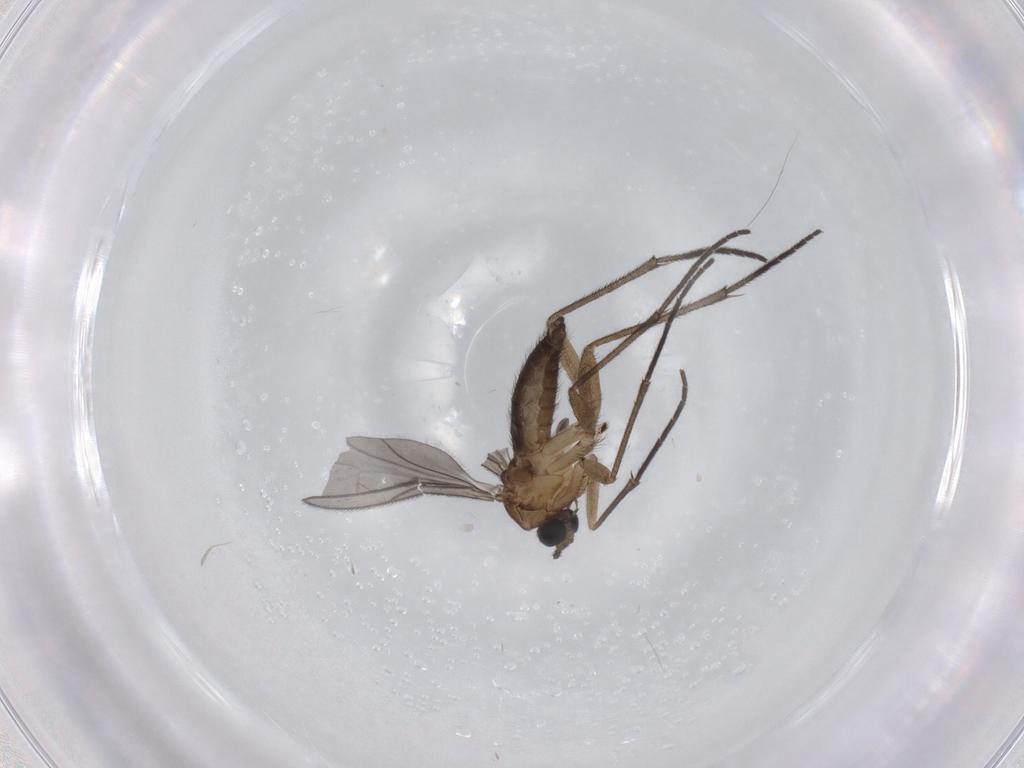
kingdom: Animalia
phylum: Arthropoda
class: Insecta
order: Diptera
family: Sciaridae
